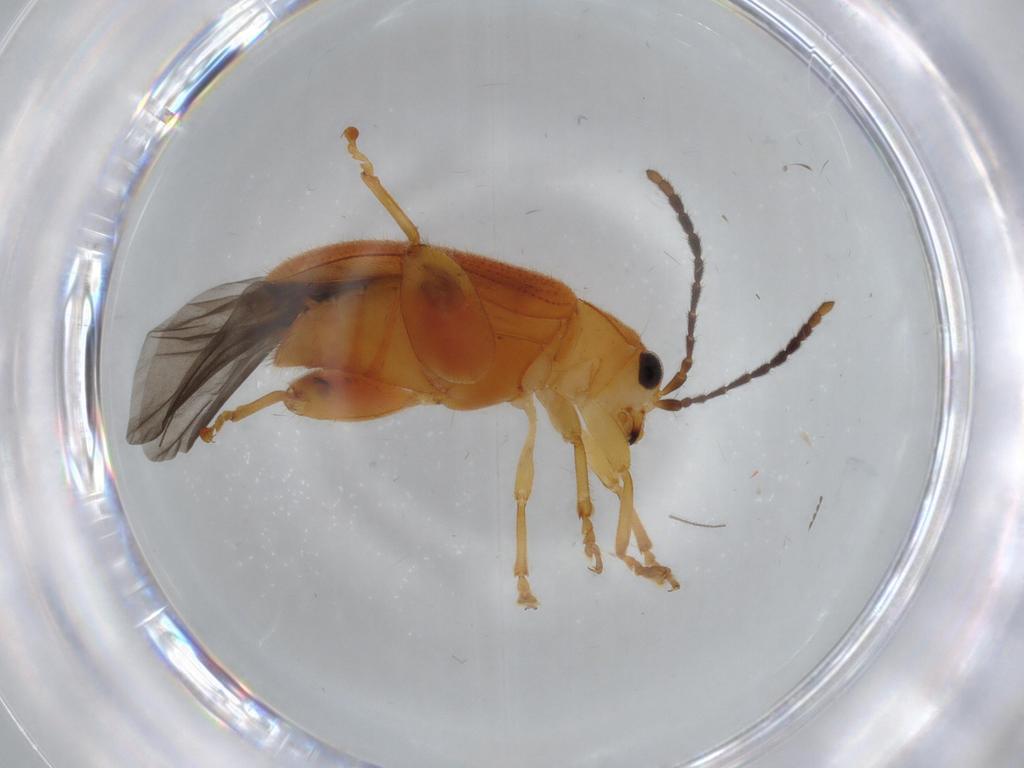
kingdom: Animalia
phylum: Arthropoda
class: Insecta
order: Coleoptera
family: Chrysomelidae
